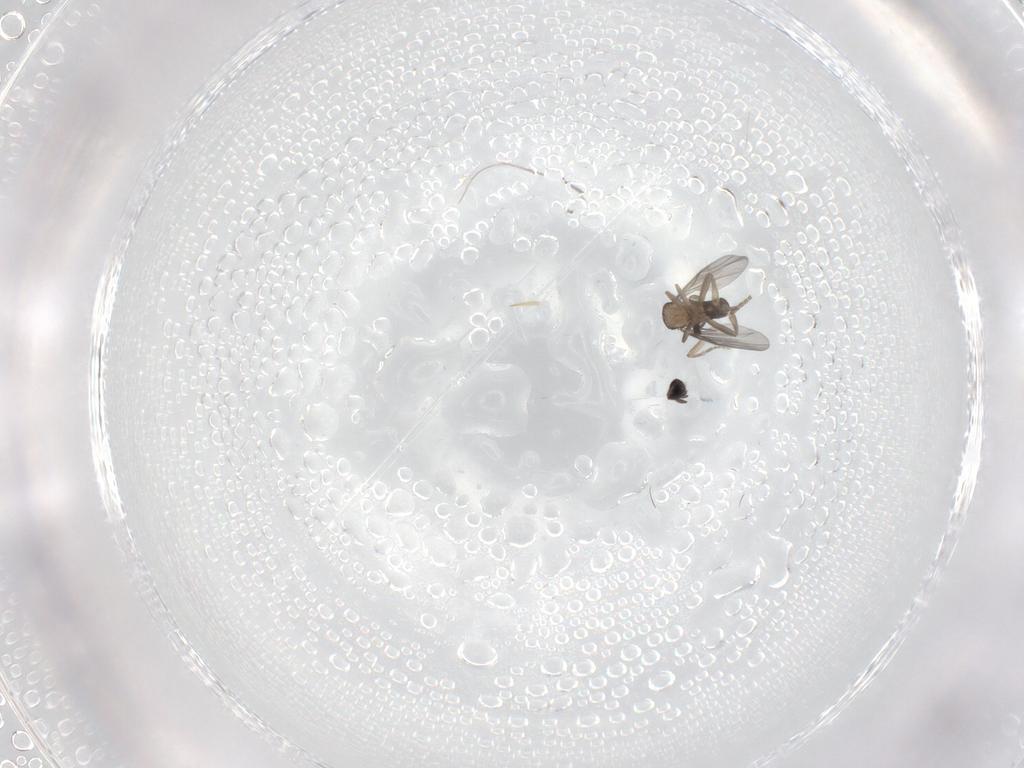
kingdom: Animalia
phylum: Arthropoda
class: Insecta
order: Diptera
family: Dolichopodidae
